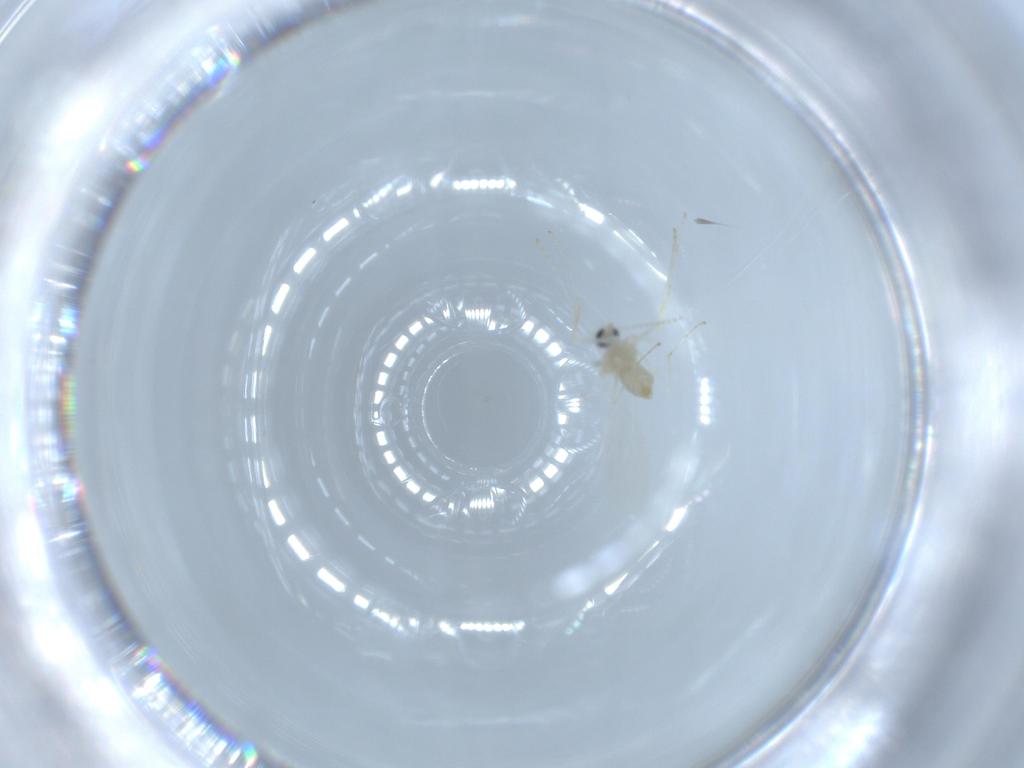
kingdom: Animalia
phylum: Arthropoda
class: Insecta
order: Diptera
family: Cecidomyiidae
